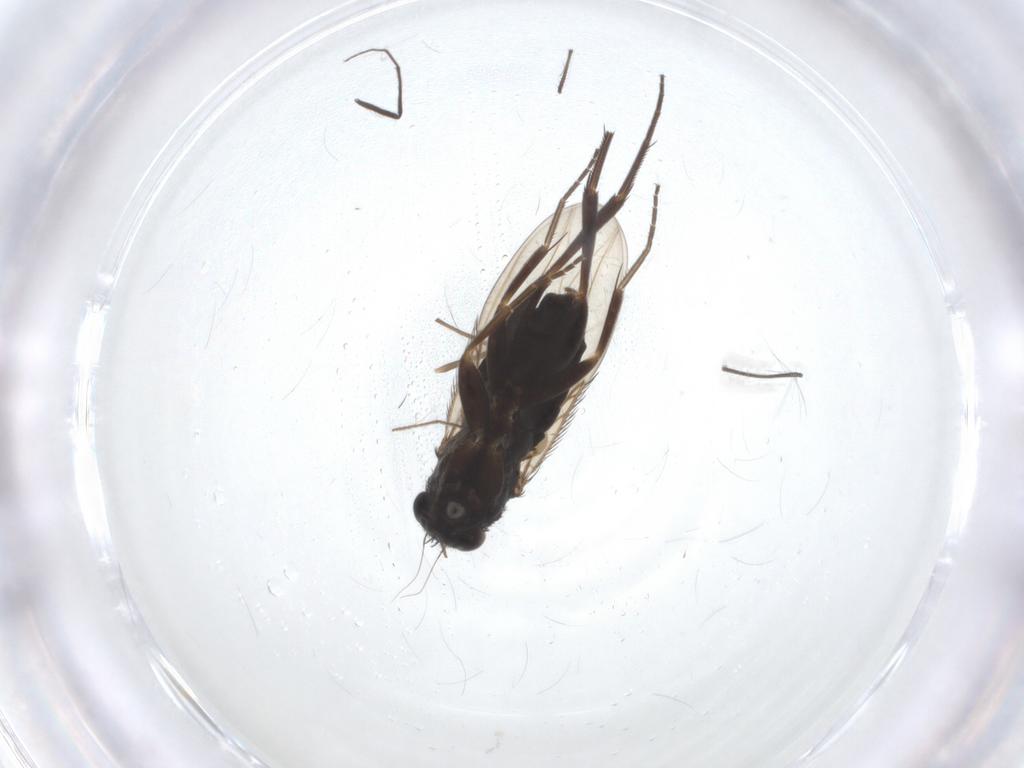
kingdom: Animalia
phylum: Arthropoda
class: Insecta
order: Diptera
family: Phoridae
